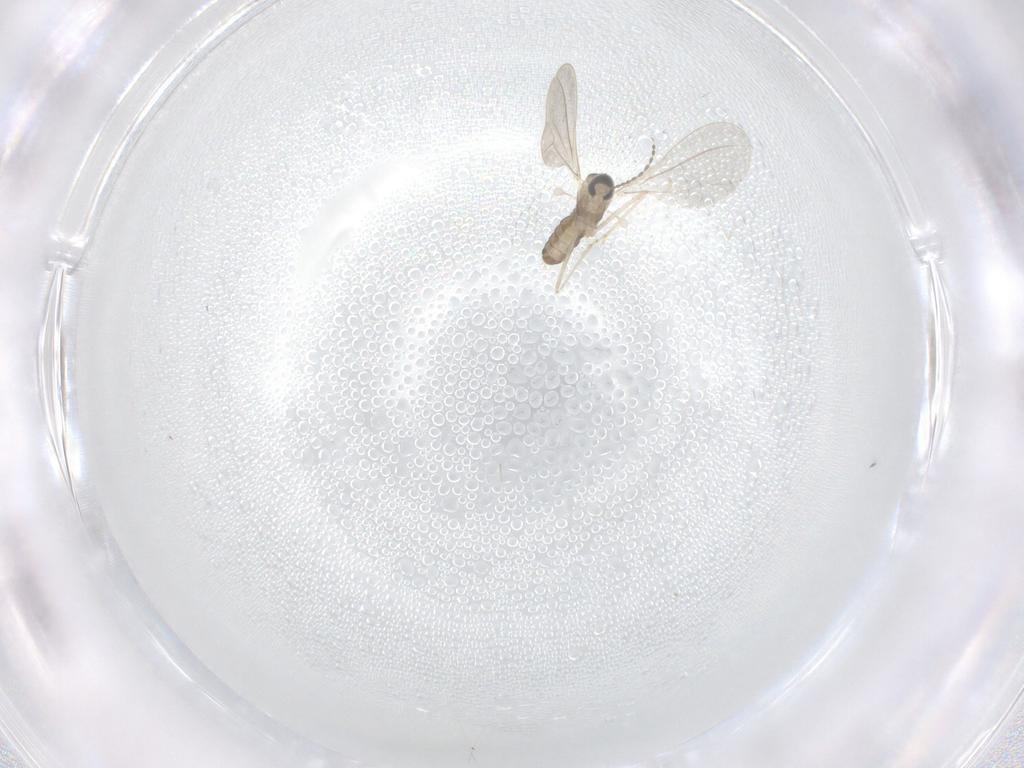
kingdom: Animalia
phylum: Arthropoda
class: Insecta
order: Diptera
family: Cecidomyiidae
